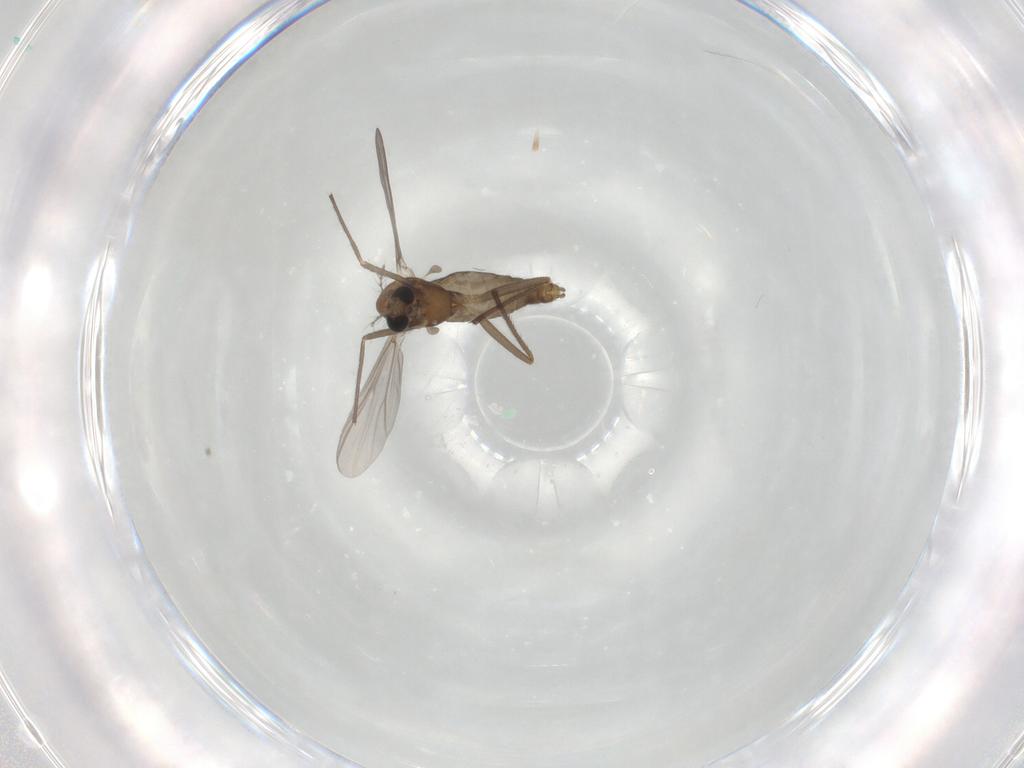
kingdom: Animalia
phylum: Arthropoda
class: Insecta
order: Diptera
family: Chironomidae
